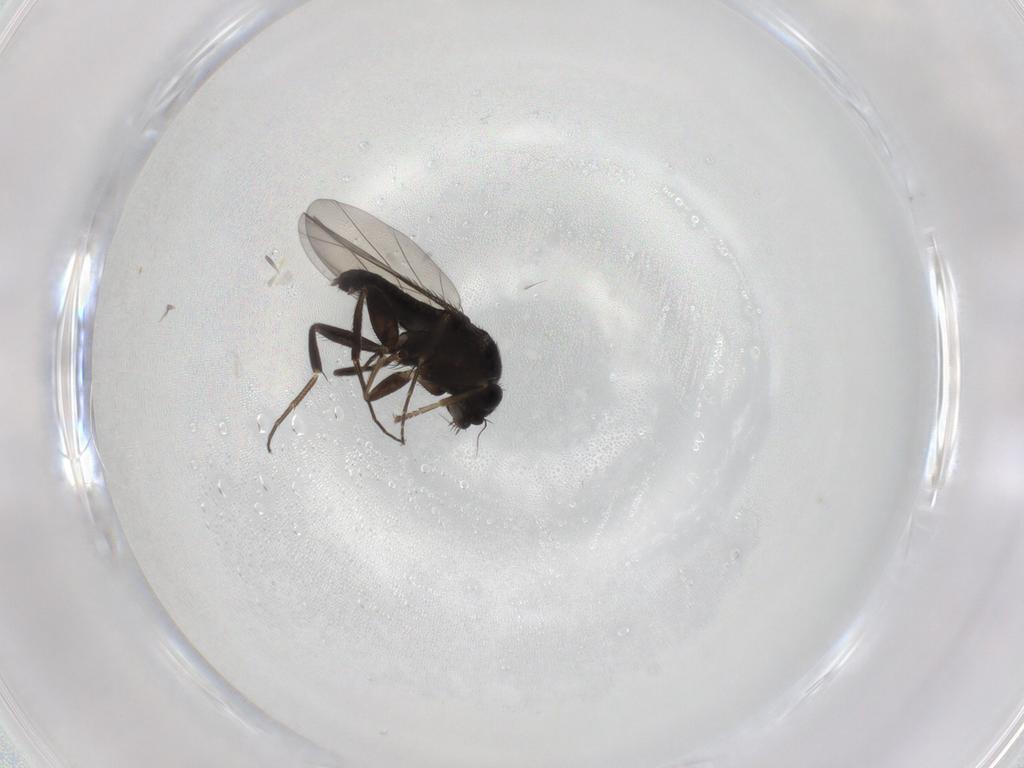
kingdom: Animalia
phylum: Arthropoda
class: Insecta
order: Diptera
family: Phoridae
